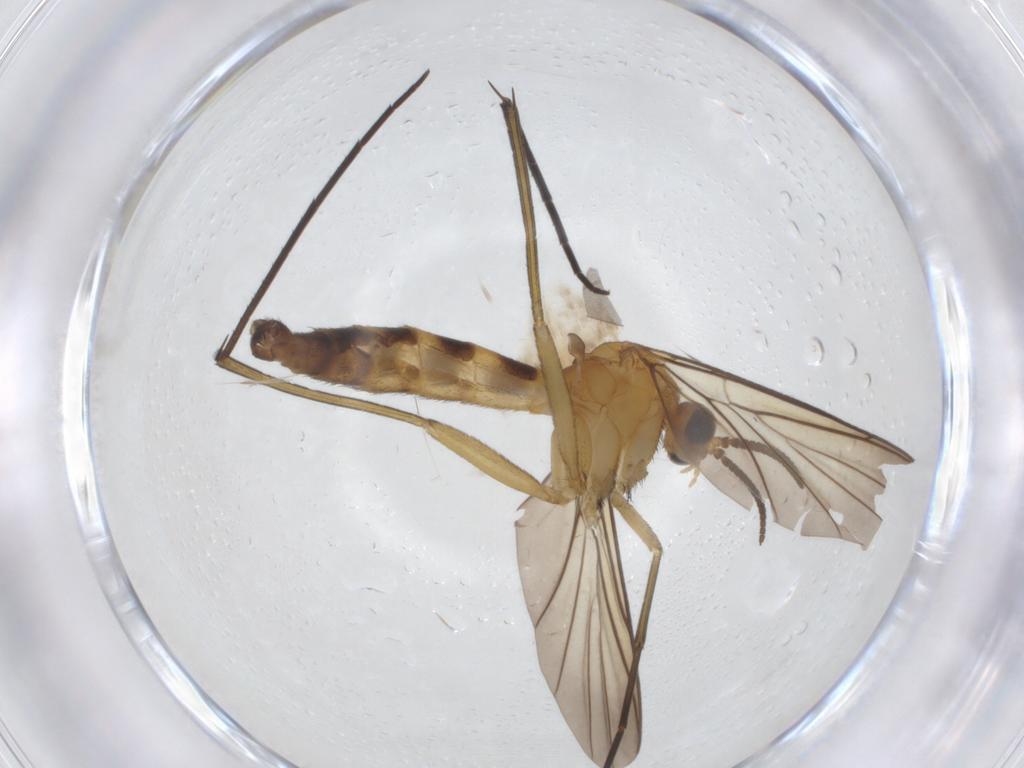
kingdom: Animalia
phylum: Arthropoda
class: Insecta
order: Diptera
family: Keroplatidae
